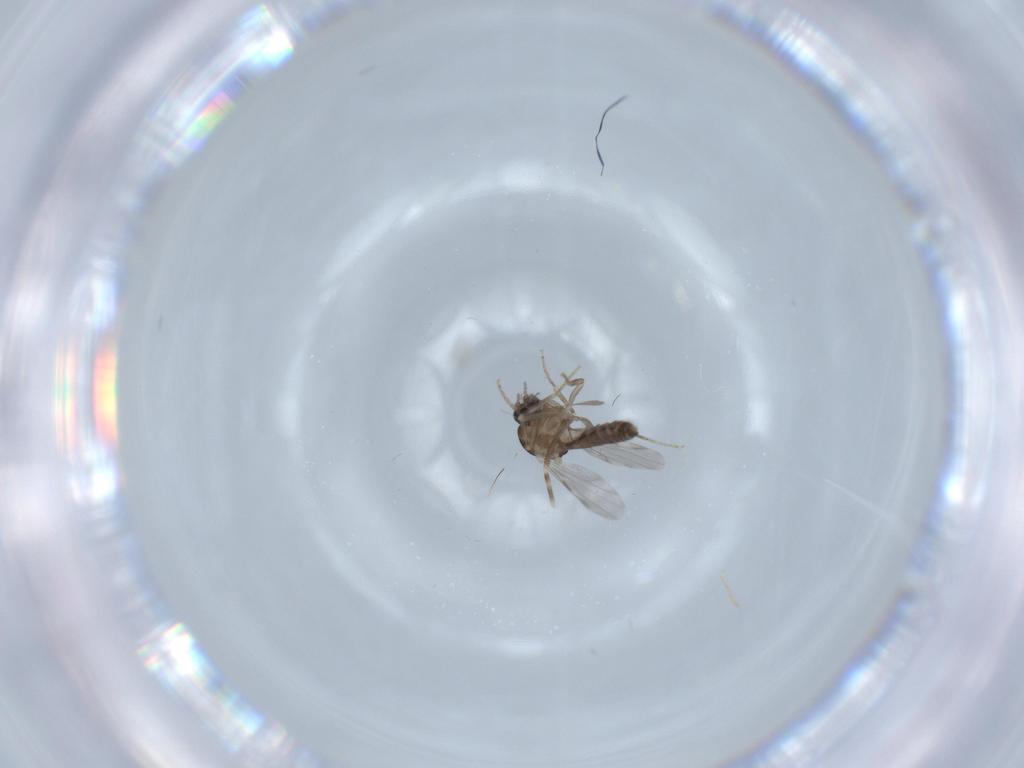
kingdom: Animalia
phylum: Arthropoda
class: Insecta
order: Diptera
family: Ceratopogonidae
